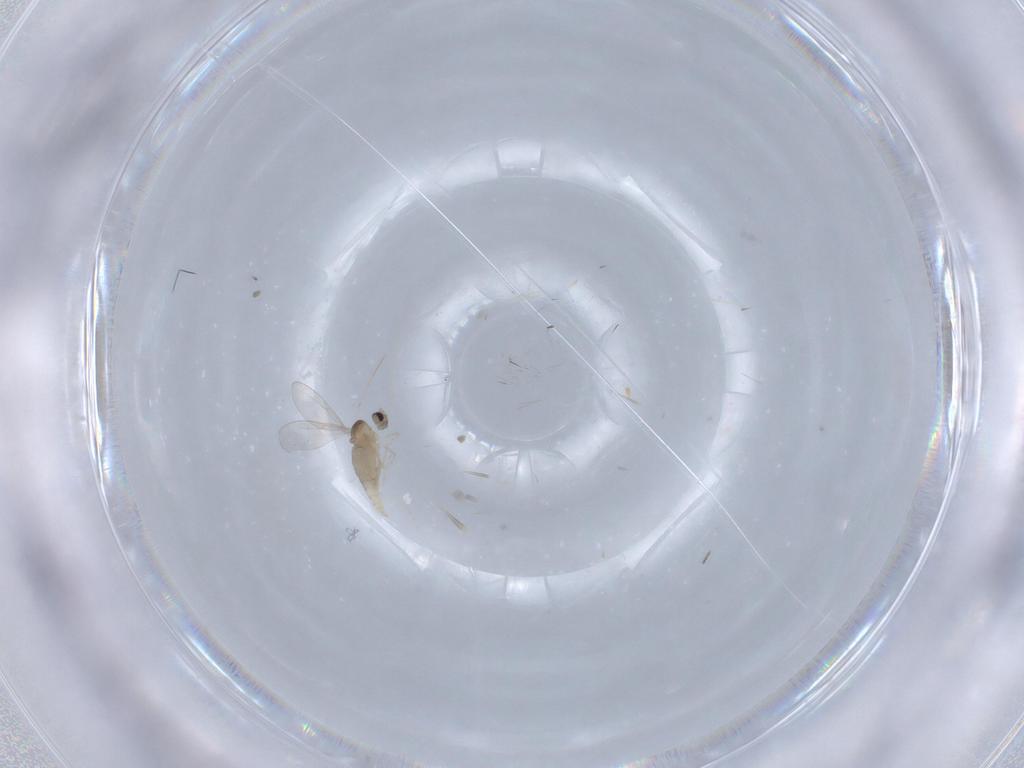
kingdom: Animalia
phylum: Arthropoda
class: Insecta
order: Diptera
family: Cecidomyiidae
